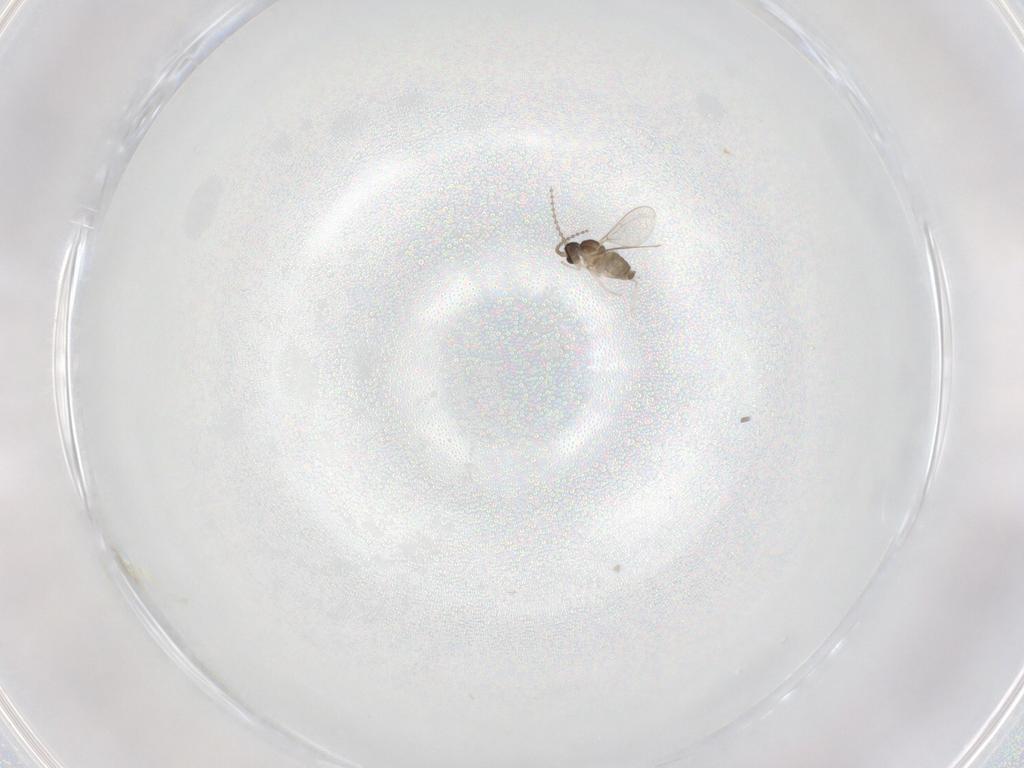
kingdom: Animalia
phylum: Arthropoda
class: Insecta
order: Diptera
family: Cecidomyiidae
